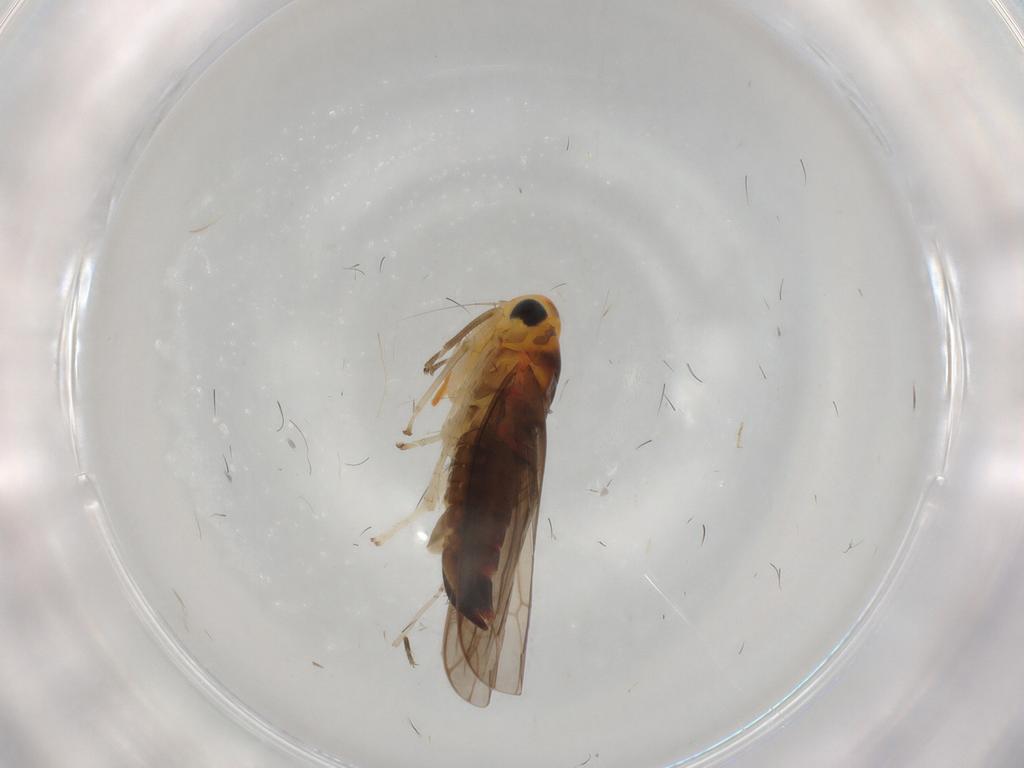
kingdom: Animalia
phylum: Arthropoda
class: Insecta
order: Hemiptera
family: Cicadellidae
